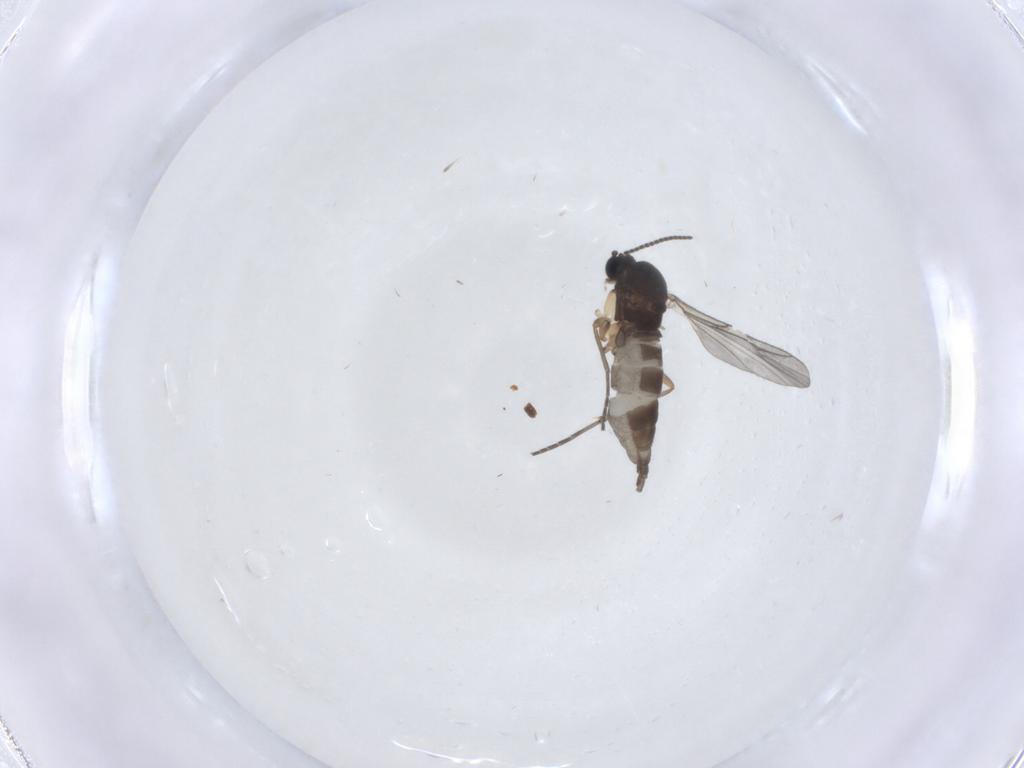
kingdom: Animalia
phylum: Arthropoda
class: Insecta
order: Diptera
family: Sciaridae
